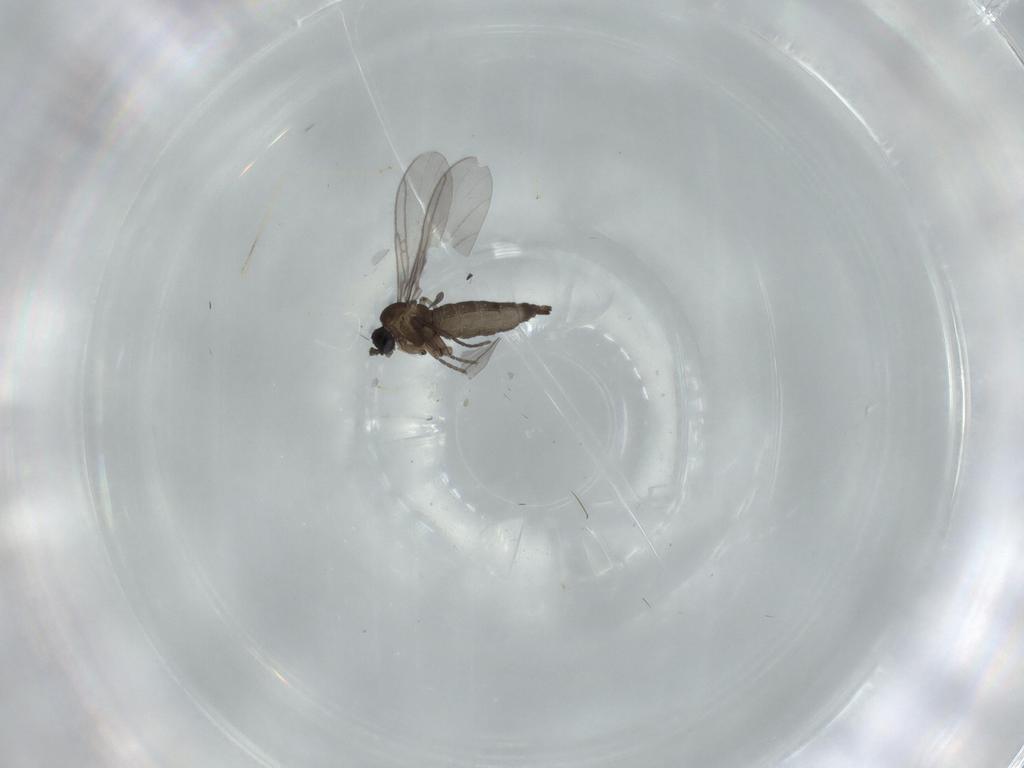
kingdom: Animalia
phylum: Arthropoda
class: Insecta
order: Diptera
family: Cecidomyiidae
